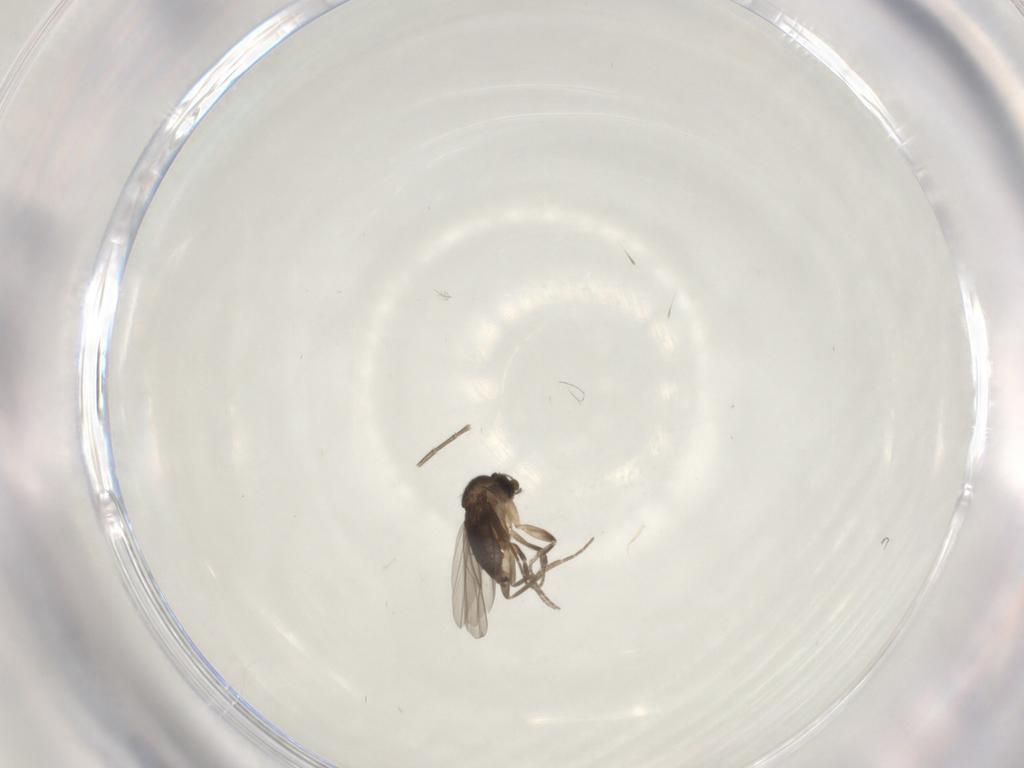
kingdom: Animalia
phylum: Arthropoda
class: Insecta
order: Diptera
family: Phoridae
